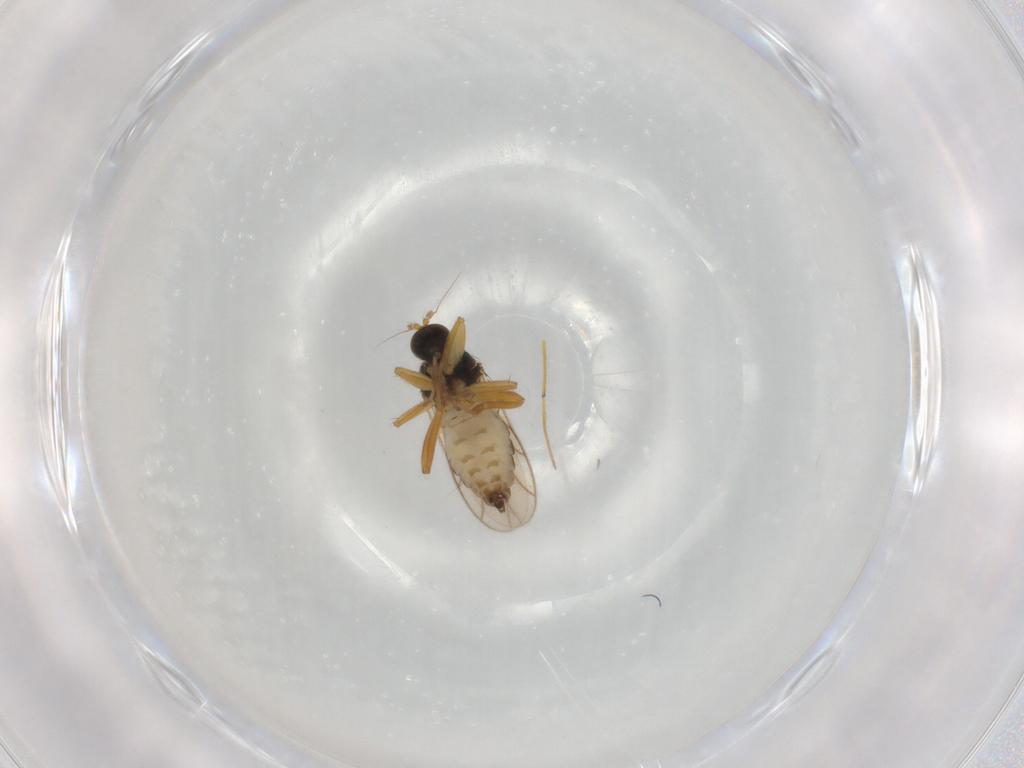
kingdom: Animalia
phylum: Arthropoda
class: Insecta
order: Diptera
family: Hybotidae
